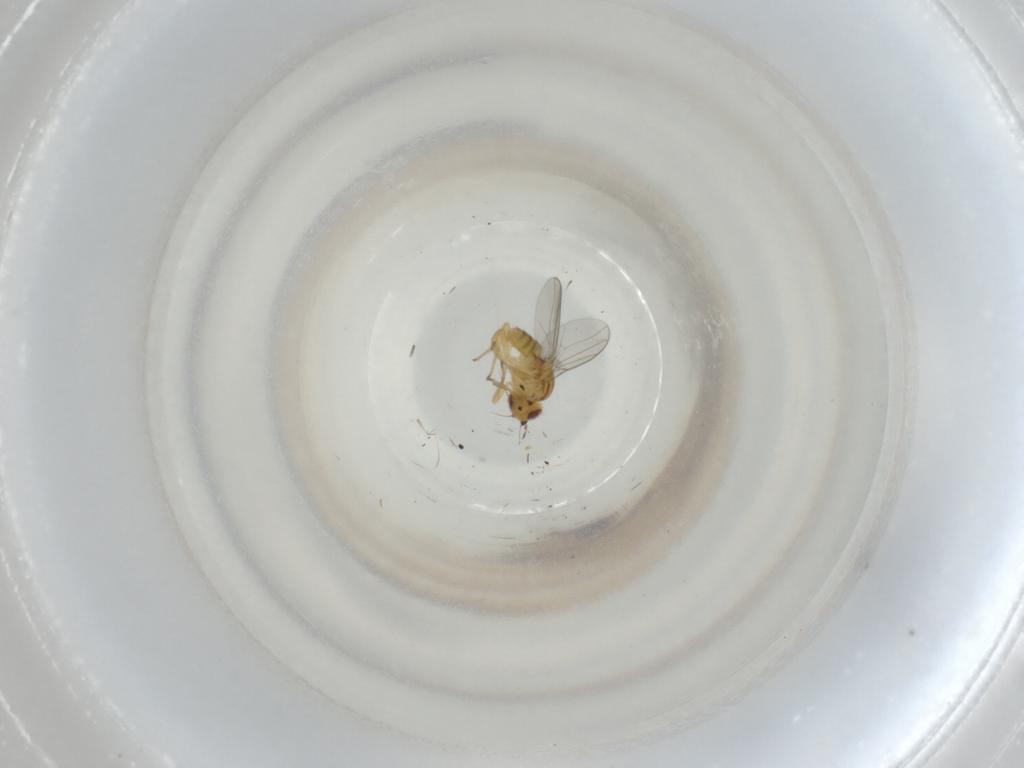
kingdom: Animalia
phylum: Arthropoda
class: Insecta
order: Diptera
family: Chloropidae
